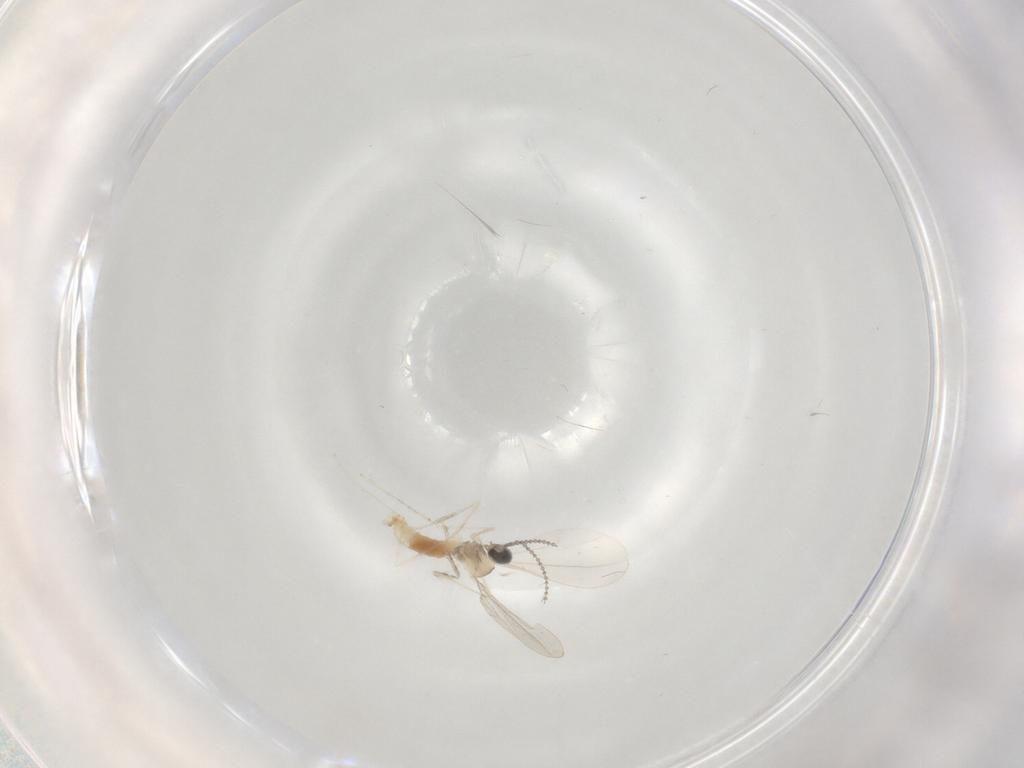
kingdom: Animalia
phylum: Arthropoda
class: Insecta
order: Diptera
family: Cecidomyiidae
